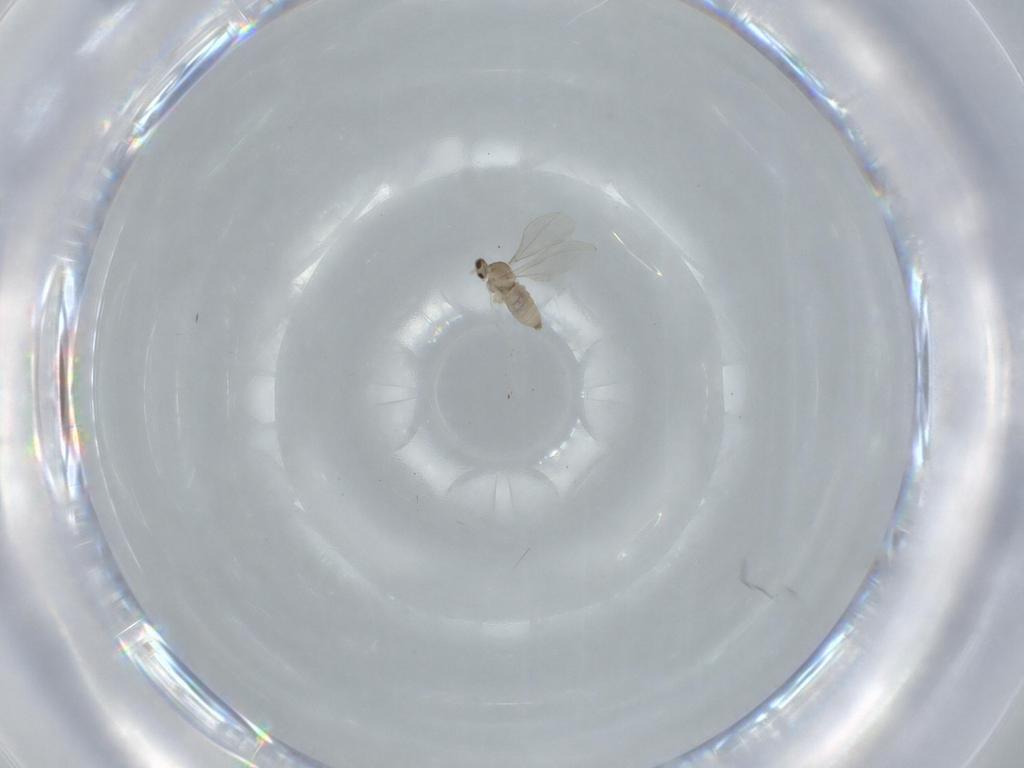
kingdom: Animalia
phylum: Arthropoda
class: Insecta
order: Diptera
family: Cecidomyiidae
